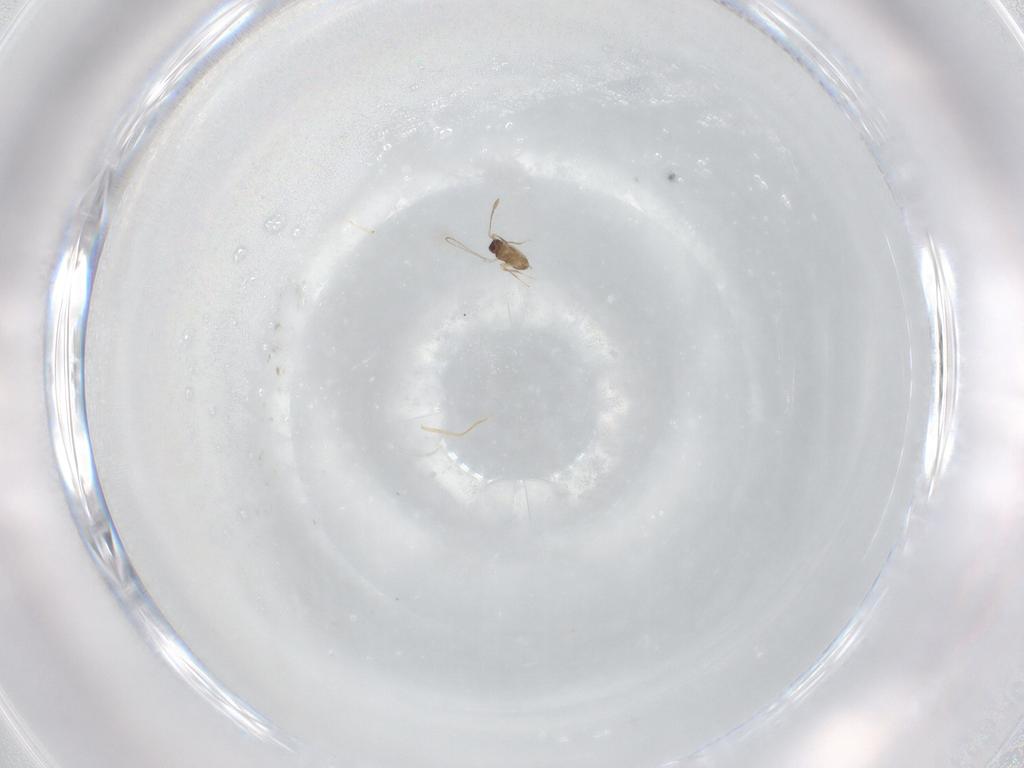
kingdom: Animalia
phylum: Arthropoda
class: Insecta
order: Hymenoptera
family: Mymaridae
